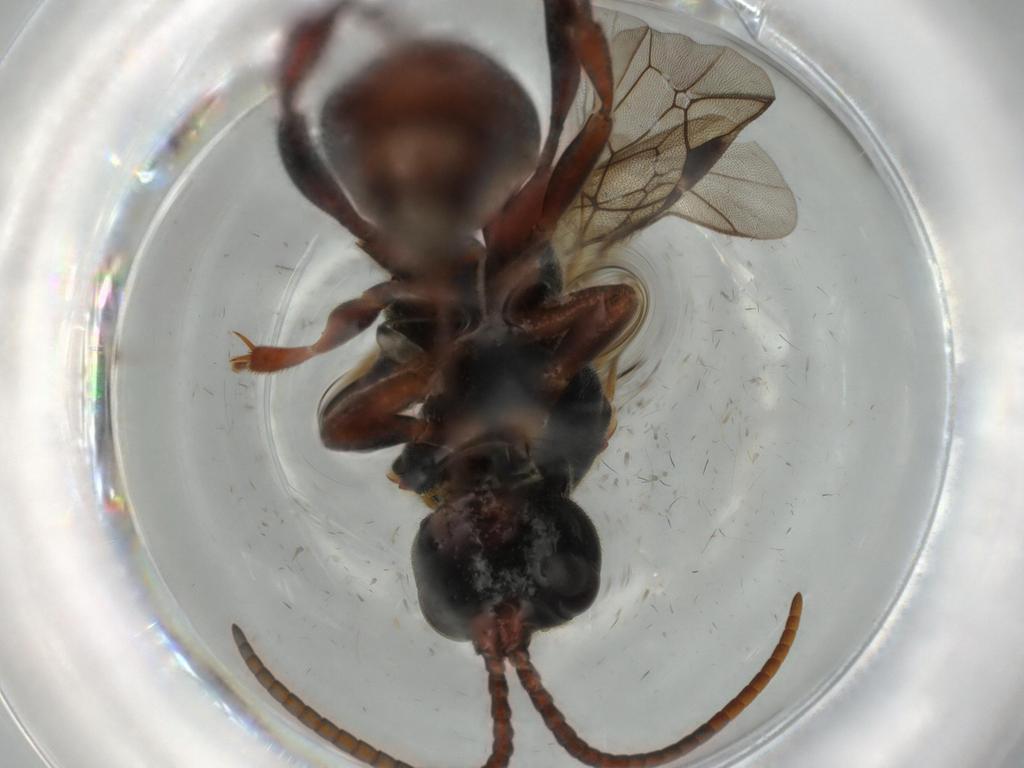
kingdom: Animalia
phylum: Arthropoda
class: Insecta
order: Hymenoptera
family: Ichneumonidae
